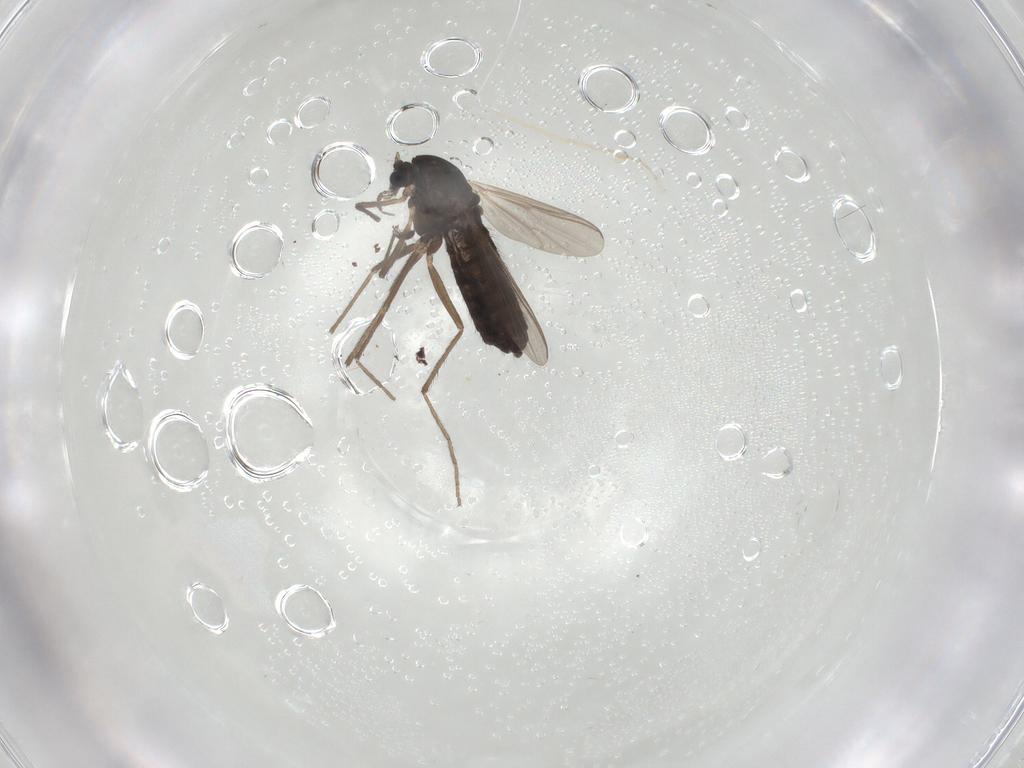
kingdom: Animalia
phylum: Arthropoda
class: Insecta
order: Diptera
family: Chironomidae
